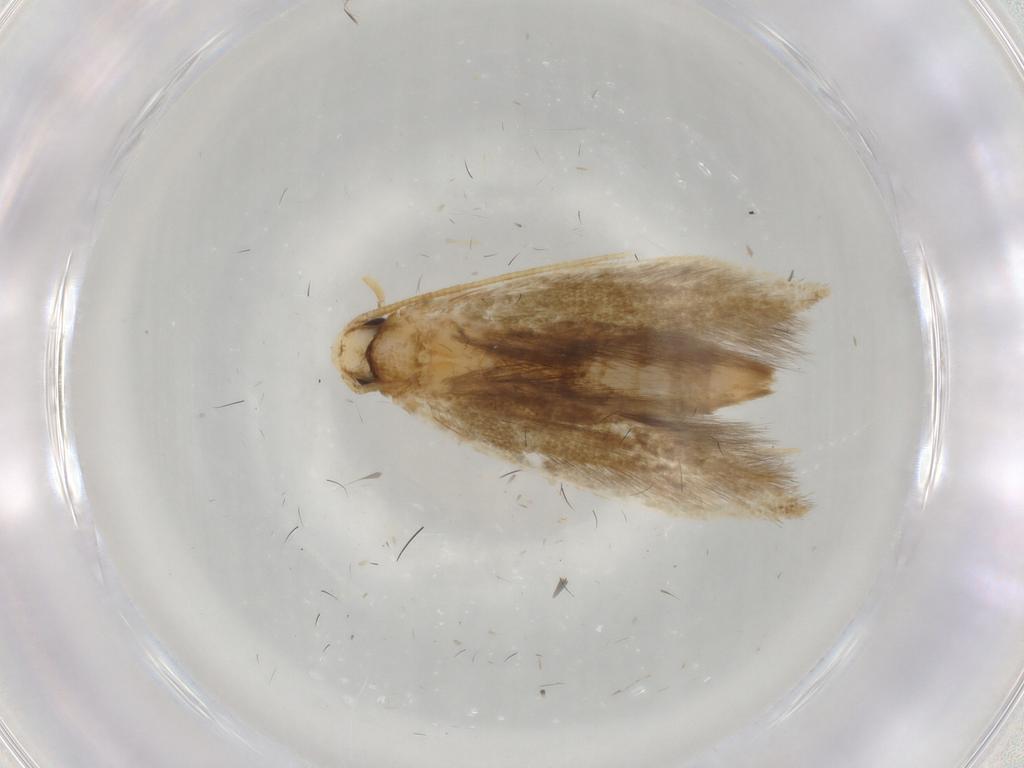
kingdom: Animalia
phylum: Arthropoda
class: Insecta
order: Lepidoptera
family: Tineidae
